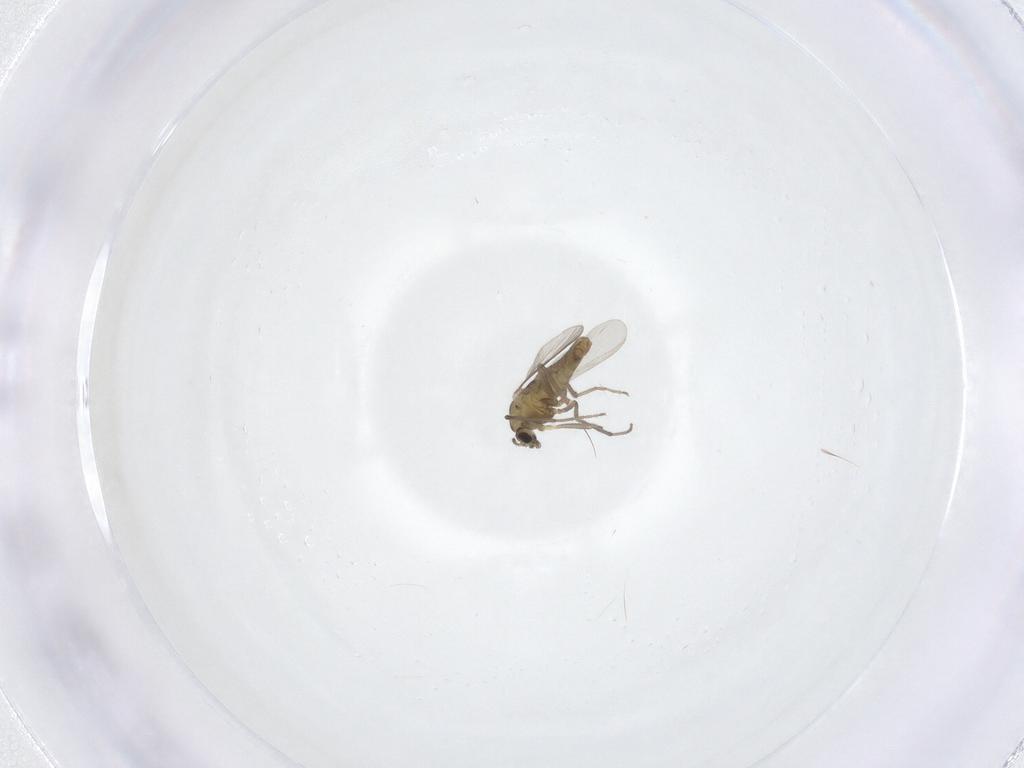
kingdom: Animalia
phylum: Arthropoda
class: Insecta
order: Diptera
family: Chironomidae
